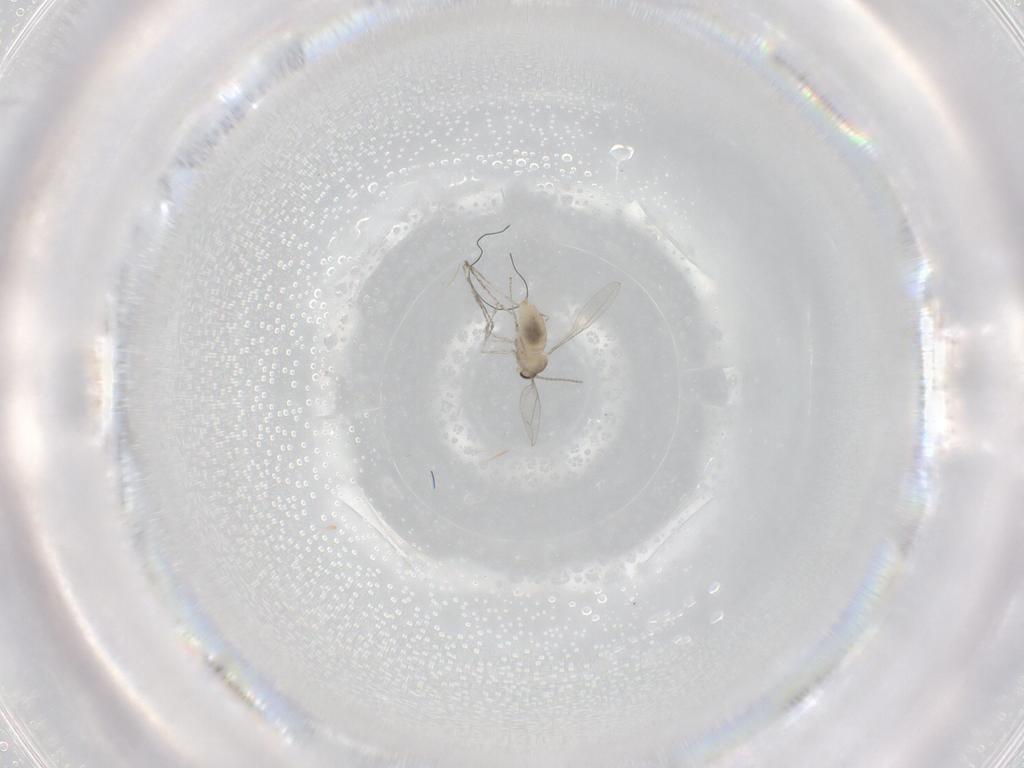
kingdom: Animalia
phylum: Arthropoda
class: Insecta
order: Diptera
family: Cecidomyiidae
